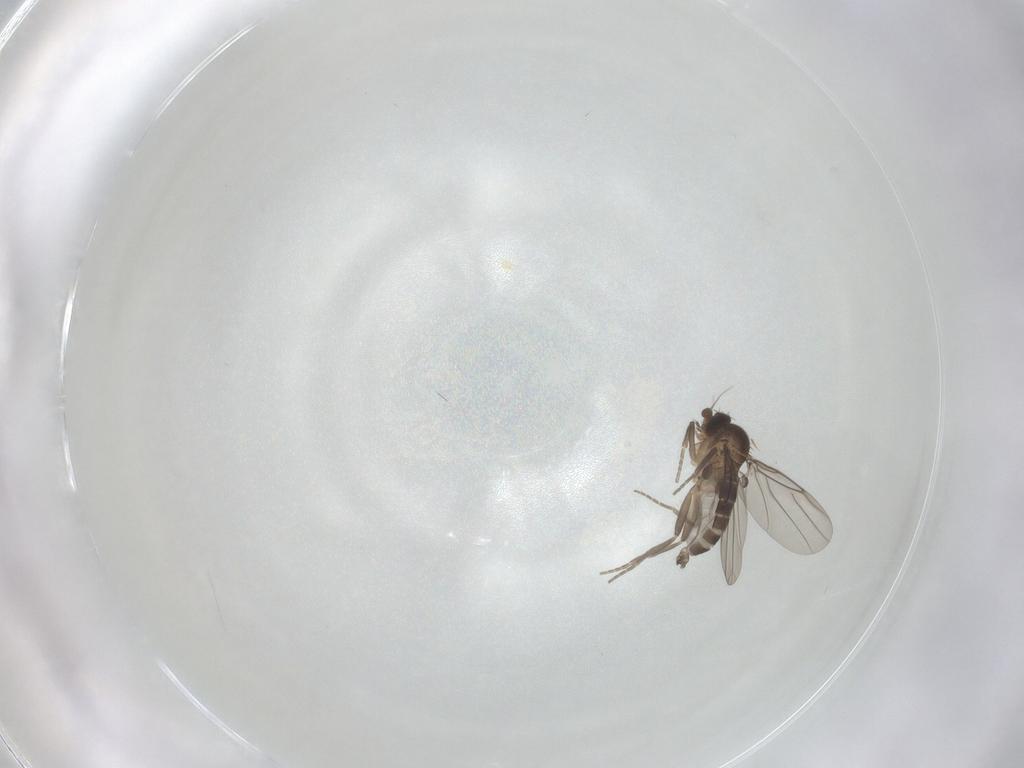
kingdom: Animalia
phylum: Arthropoda
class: Insecta
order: Diptera
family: Phoridae
